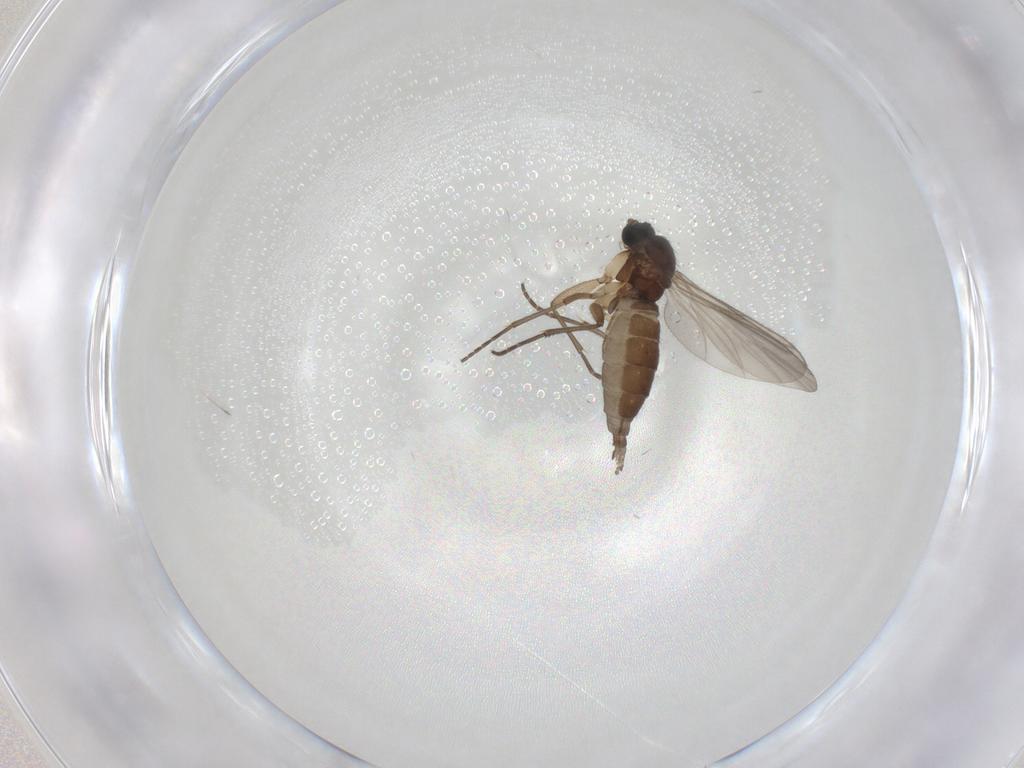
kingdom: Animalia
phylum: Arthropoda
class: Insecta
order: Diptera
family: Sciaridae
